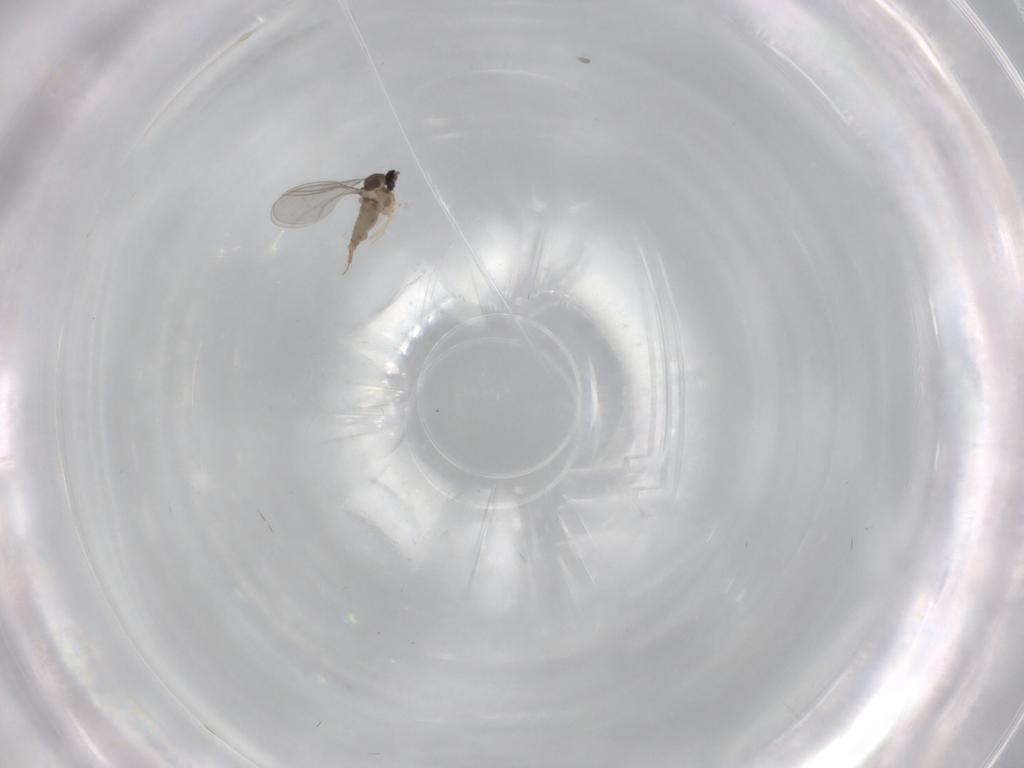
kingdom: Animalia
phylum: Arthropoda
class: Insecta
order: Diptera
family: Cecidomyiidae
